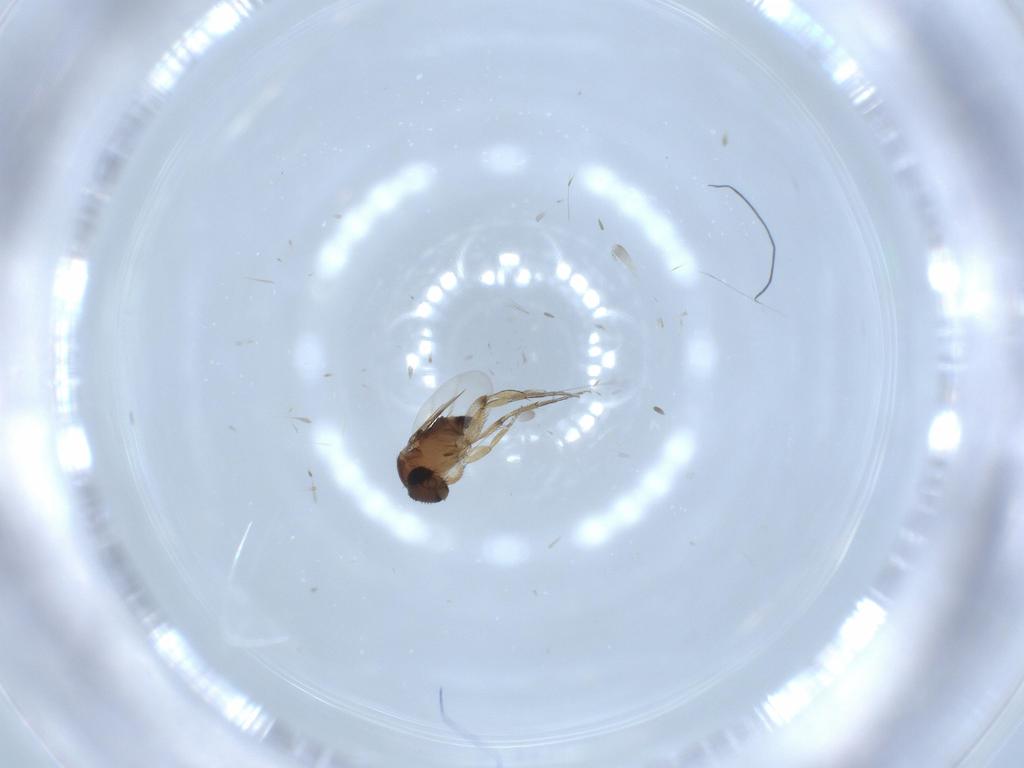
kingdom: Animalia
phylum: Arthropoda
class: Insecta
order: Diptera
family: Phoridae
